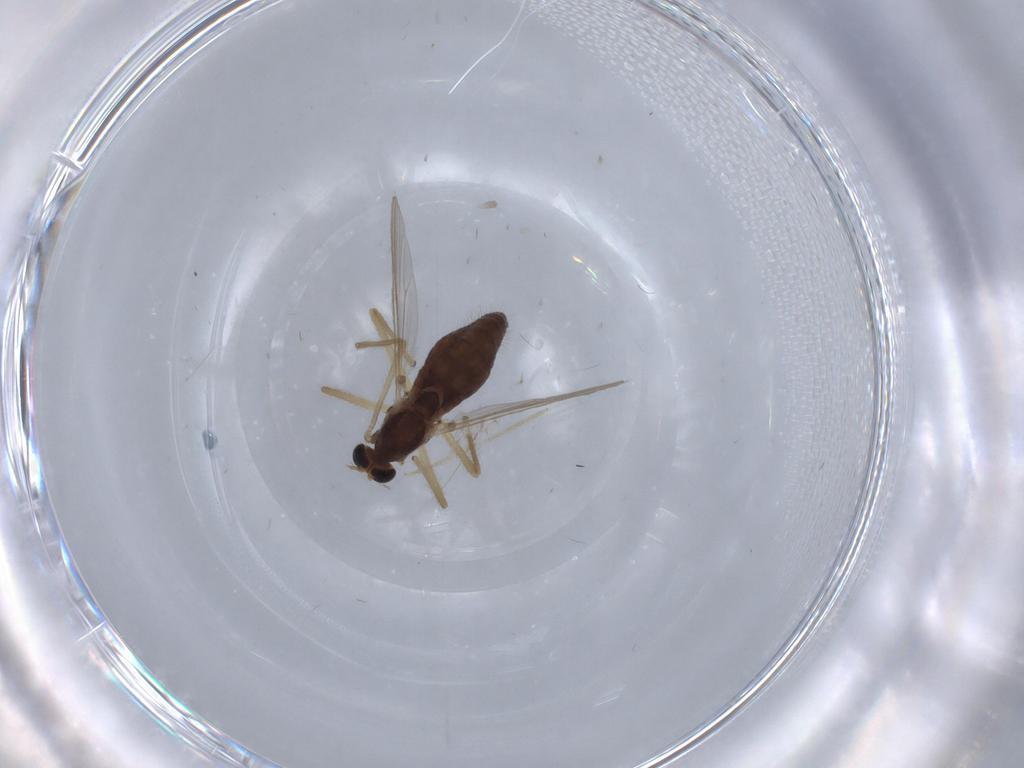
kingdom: Animalia
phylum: Arthropoda
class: Insecta
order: Diptera
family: Chironomidae
